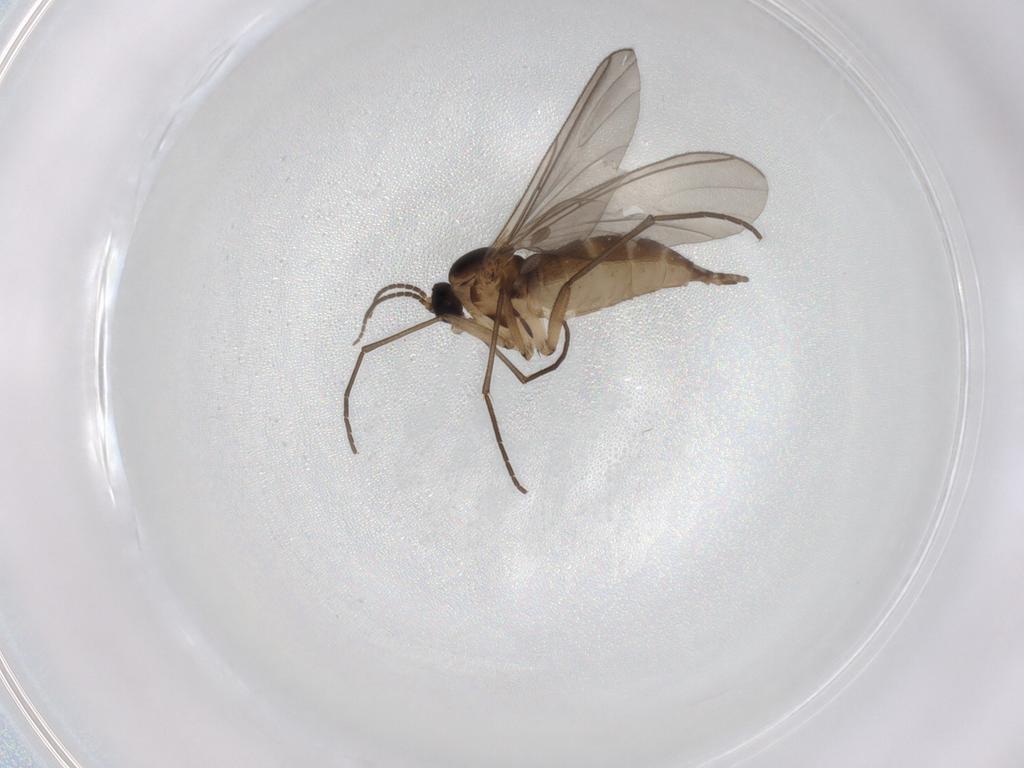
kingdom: Animalia
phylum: Arthropoda
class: Insecta
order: Diptera
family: Sciaridae
